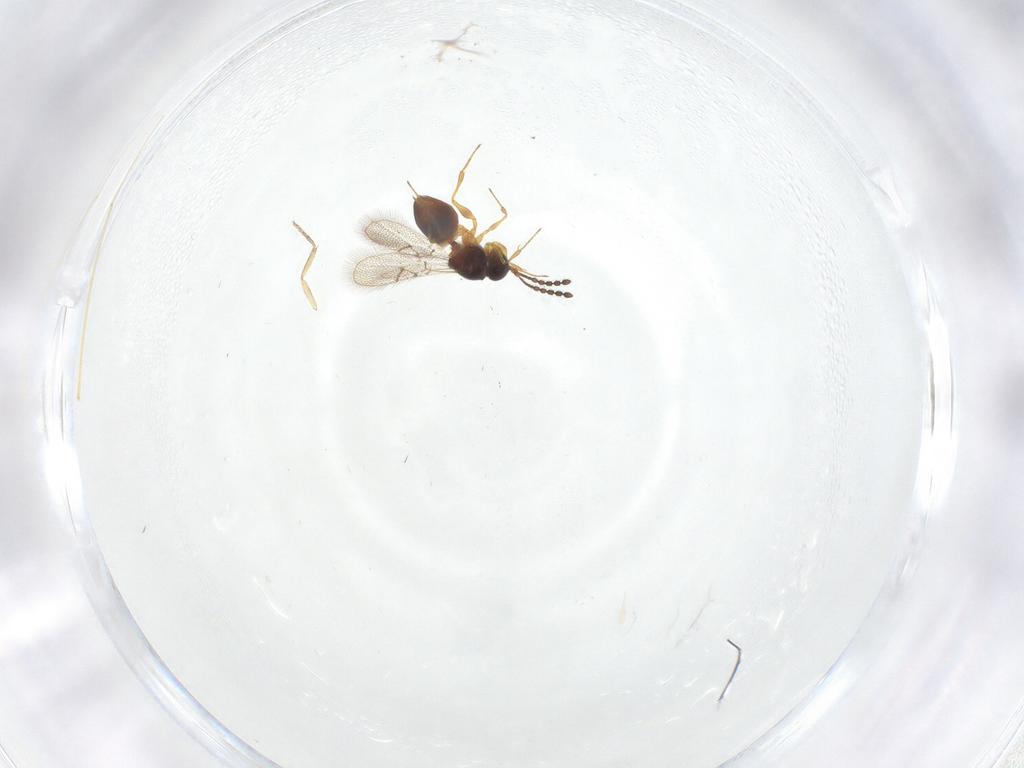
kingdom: Animalia
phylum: Arthropoda
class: Insecta
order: Hymenoptera
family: Figitidae
